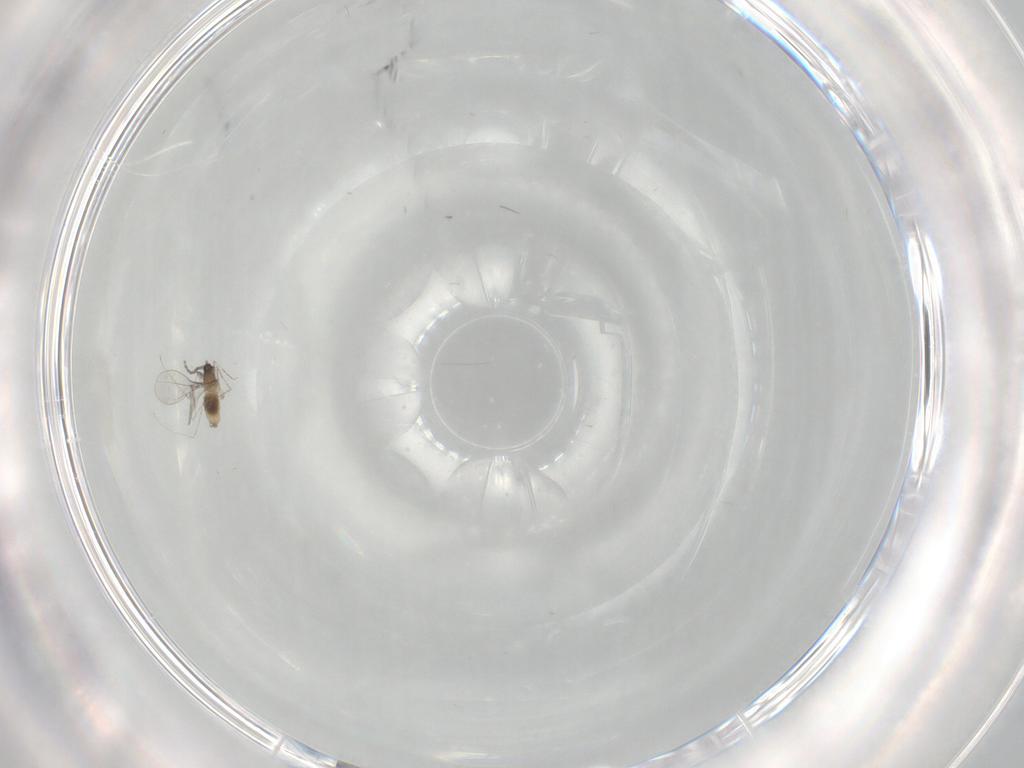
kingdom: Animalia
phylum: Arthropoda
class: Insecta
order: Diptera
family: Cecidomyiidae
